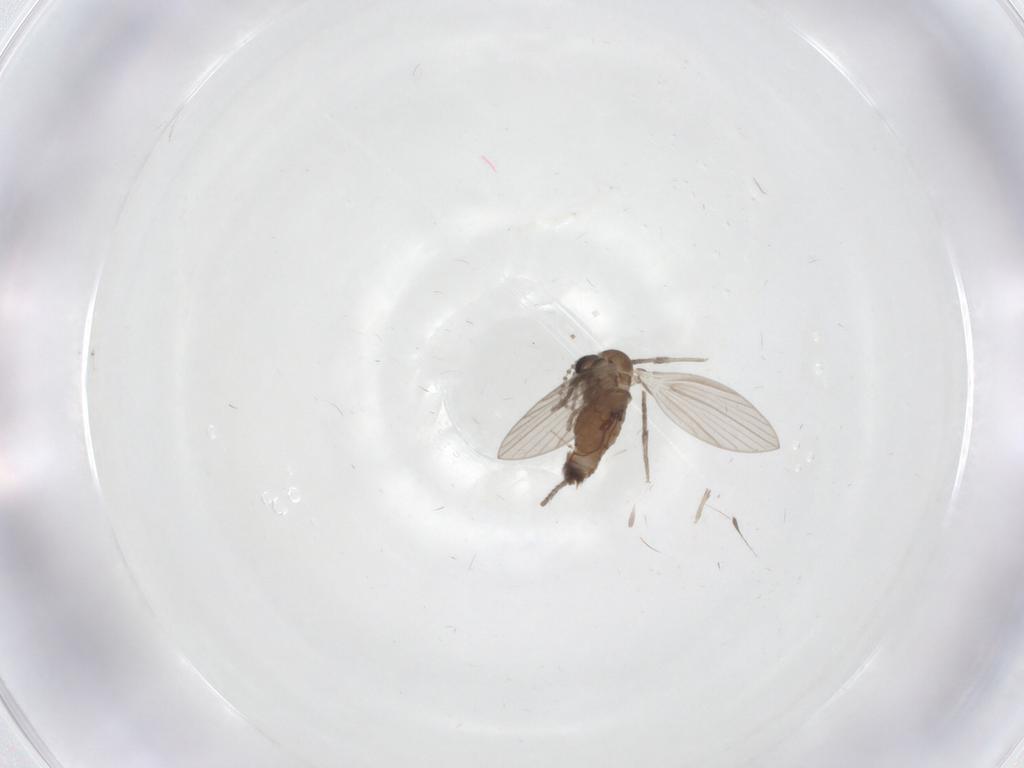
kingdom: Animalia
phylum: Arthropoda
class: Insecta
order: Diptera
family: Psychodidae
